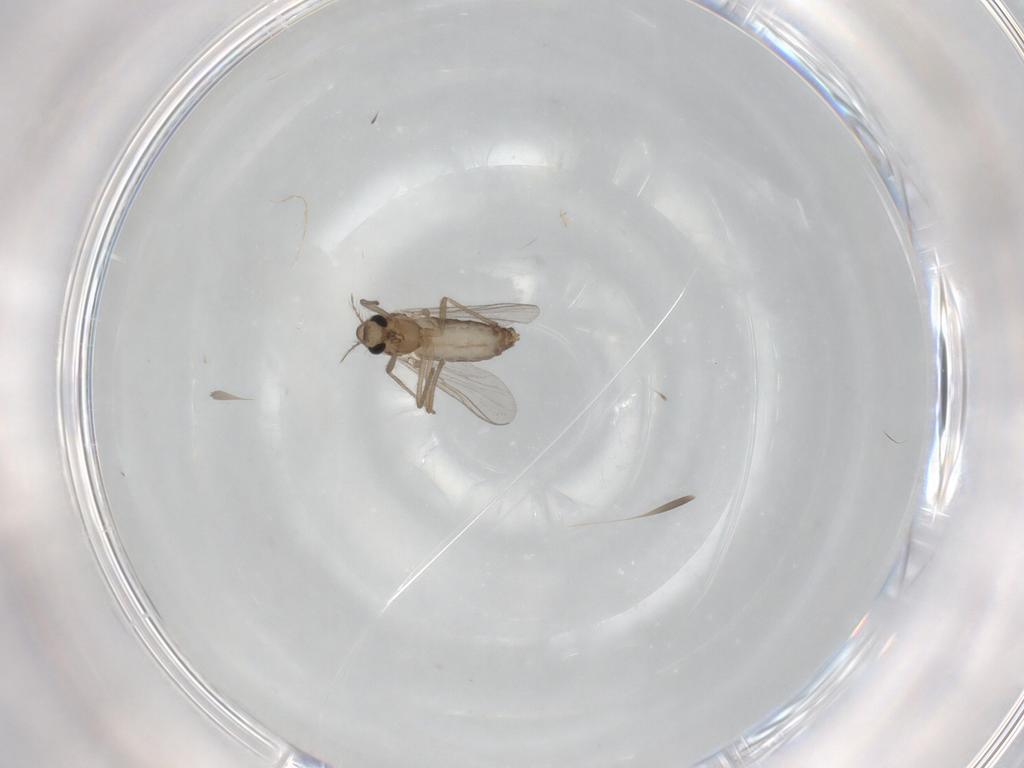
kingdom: Animalia
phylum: Arthropoda
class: Insecta
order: Diptera
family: Chironomidae
